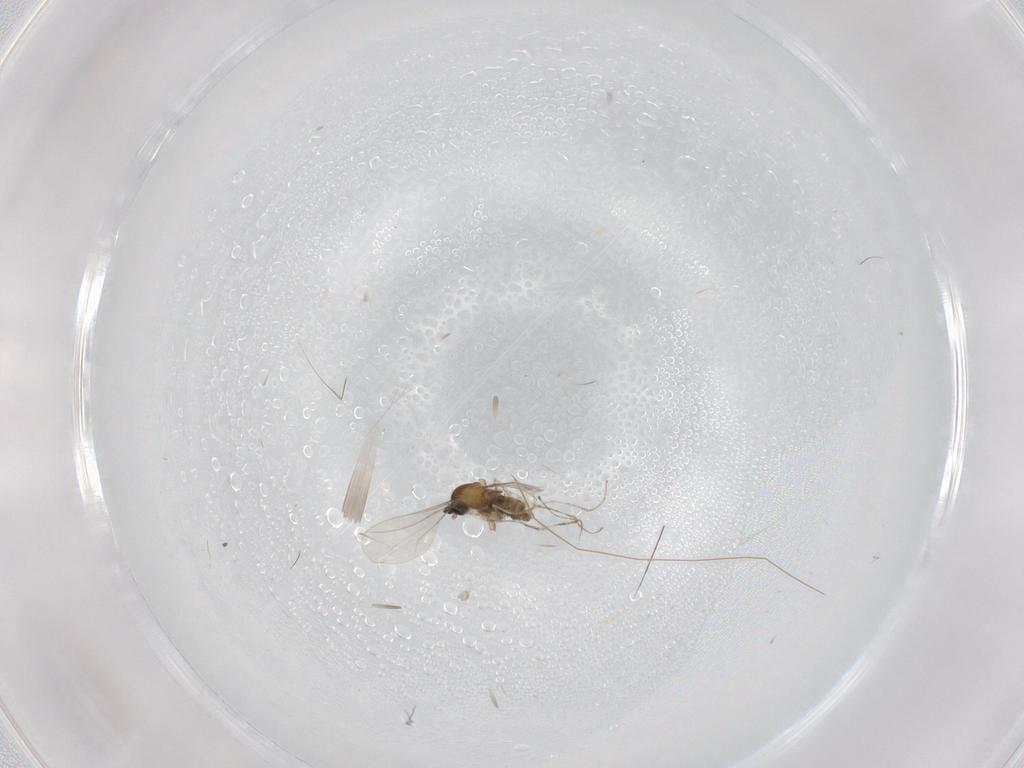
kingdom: Animalia
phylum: Arthropoda
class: Insecta
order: Diptera
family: Cecidomyiidae
